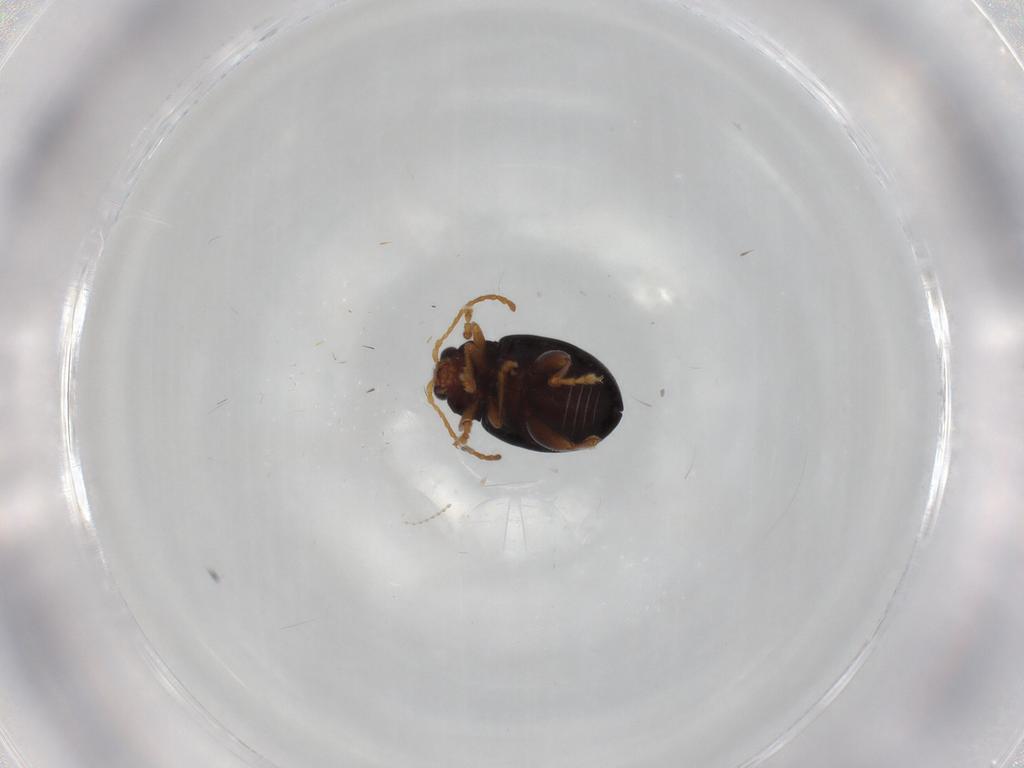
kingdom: Animalia
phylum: Arthropoda
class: Insecta
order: Coleoptera
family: Chrysomelidae
